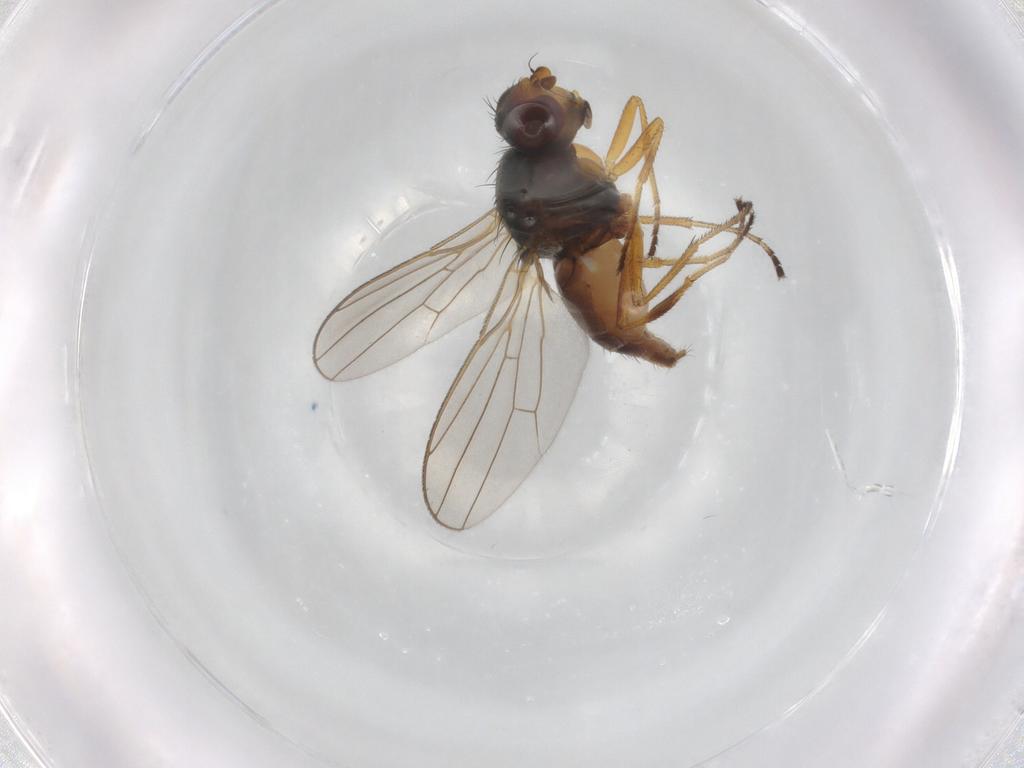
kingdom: Animalia
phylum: Arthropoda
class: Insecta
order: Diptera
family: Chloropidae
